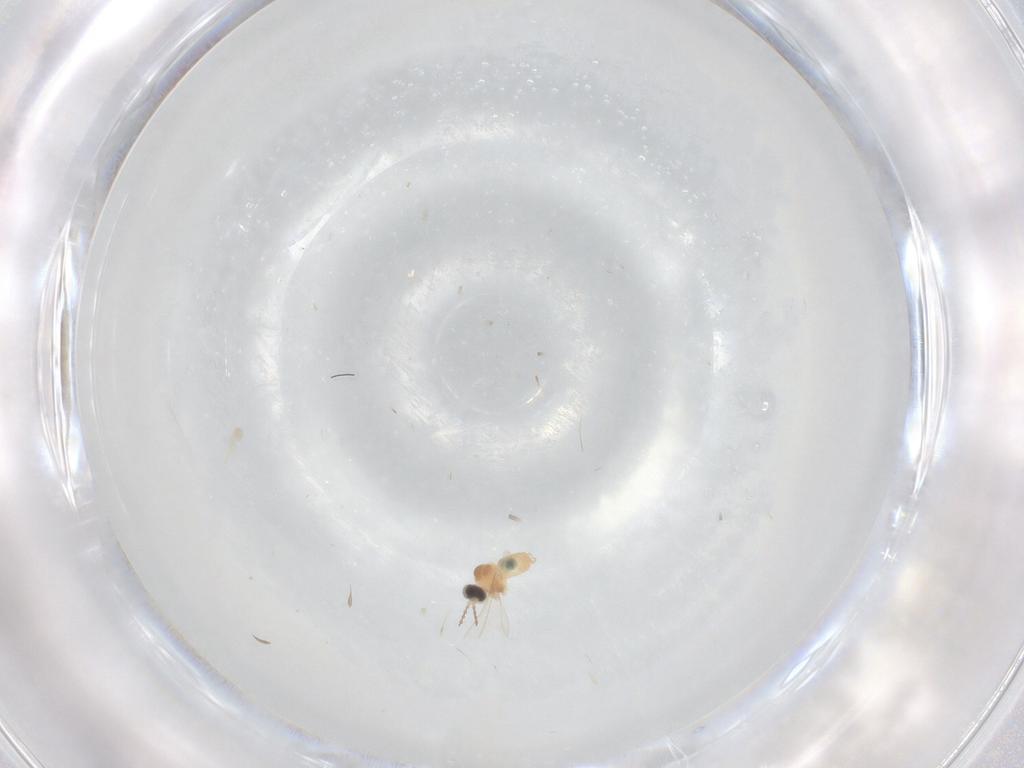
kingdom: Animalia
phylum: Arthropoda
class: Insecta
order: Diptera
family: Cecidomyiidae
